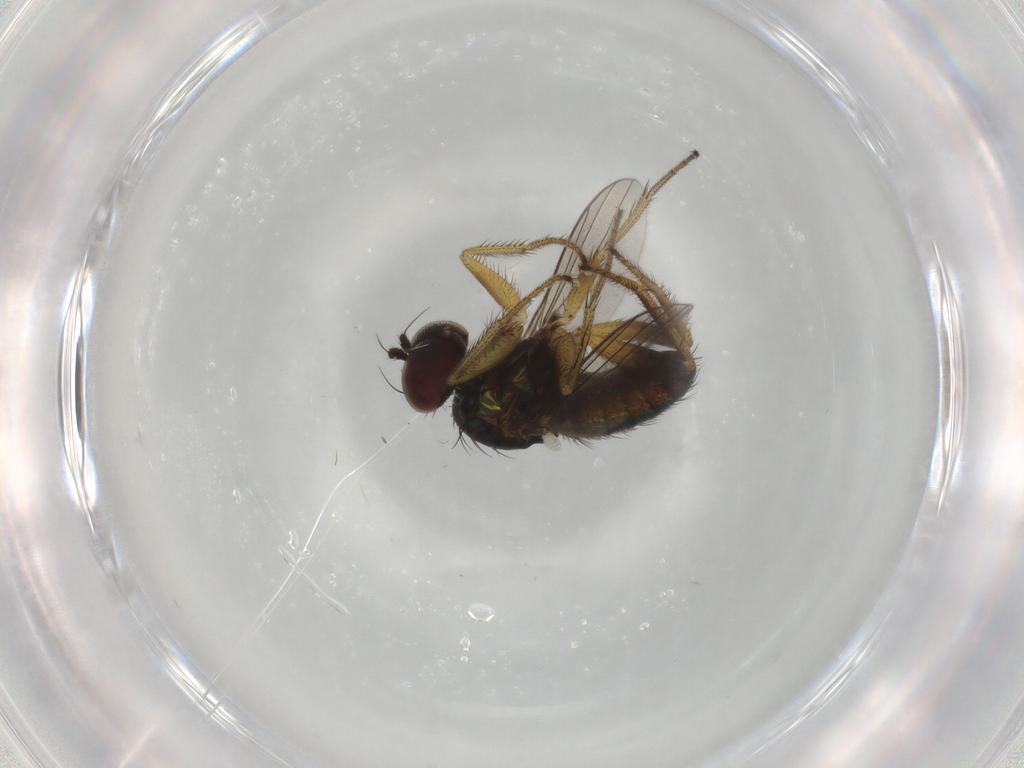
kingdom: Animalia
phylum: Arthropoda
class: Insecta
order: Diptera
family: Dolichopodidae
